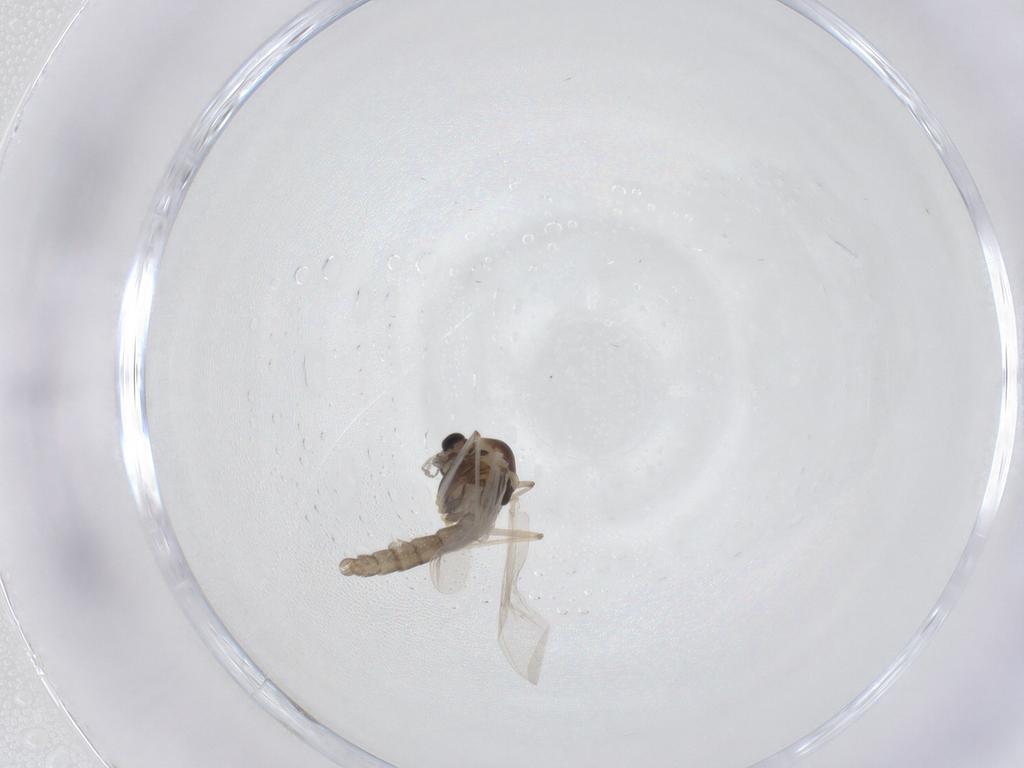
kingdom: Animalia
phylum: Arthropoda
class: Insecta
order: Diptera
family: Chironomidae
